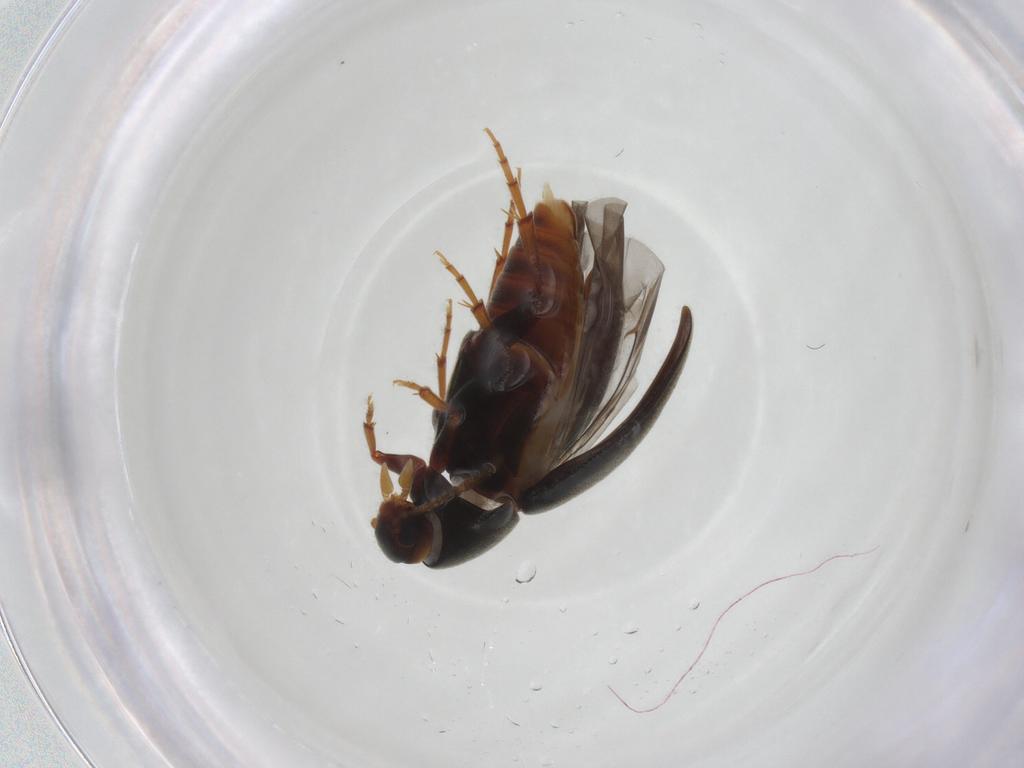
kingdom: Animalia
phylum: Arthropoda
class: Insecta
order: Coleoptera
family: Scraptiidae
